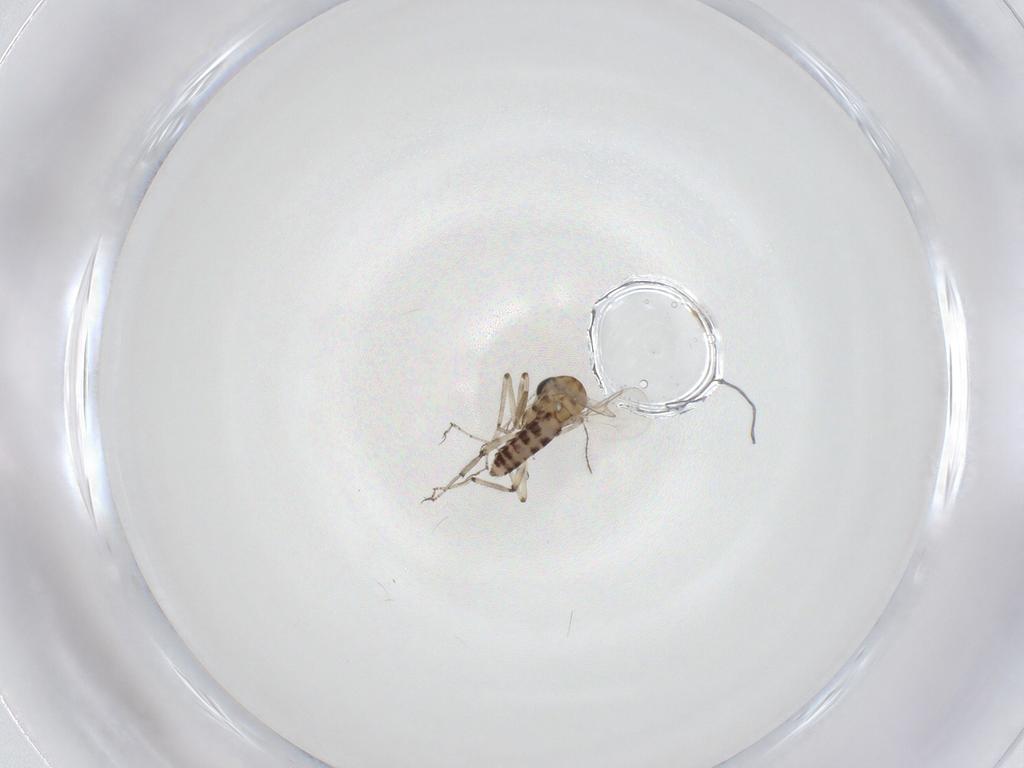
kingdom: Animalia
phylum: Arthropoda
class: Insecta
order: Diptera
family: Ceratopogonidae
